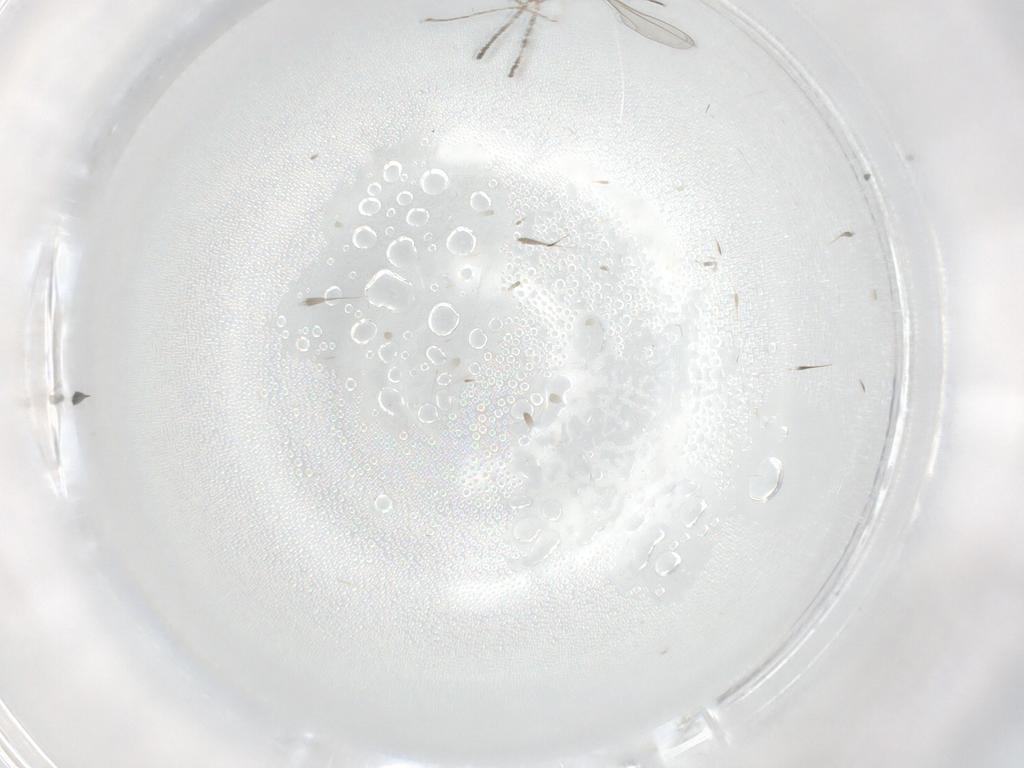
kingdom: Animalia
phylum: Arthropoda
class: Insecta
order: Diptera
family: Cecidomyiidae
